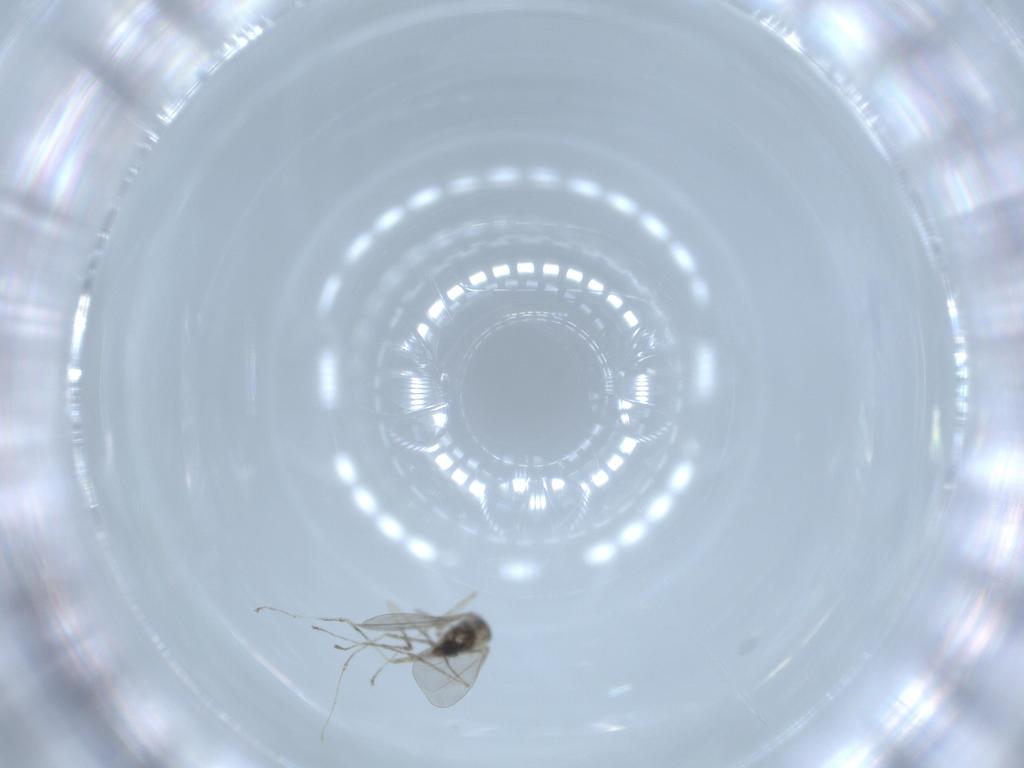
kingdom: Animalia
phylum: Arthropoda
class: Insecta
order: Diptera
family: Cecidomyiidae
